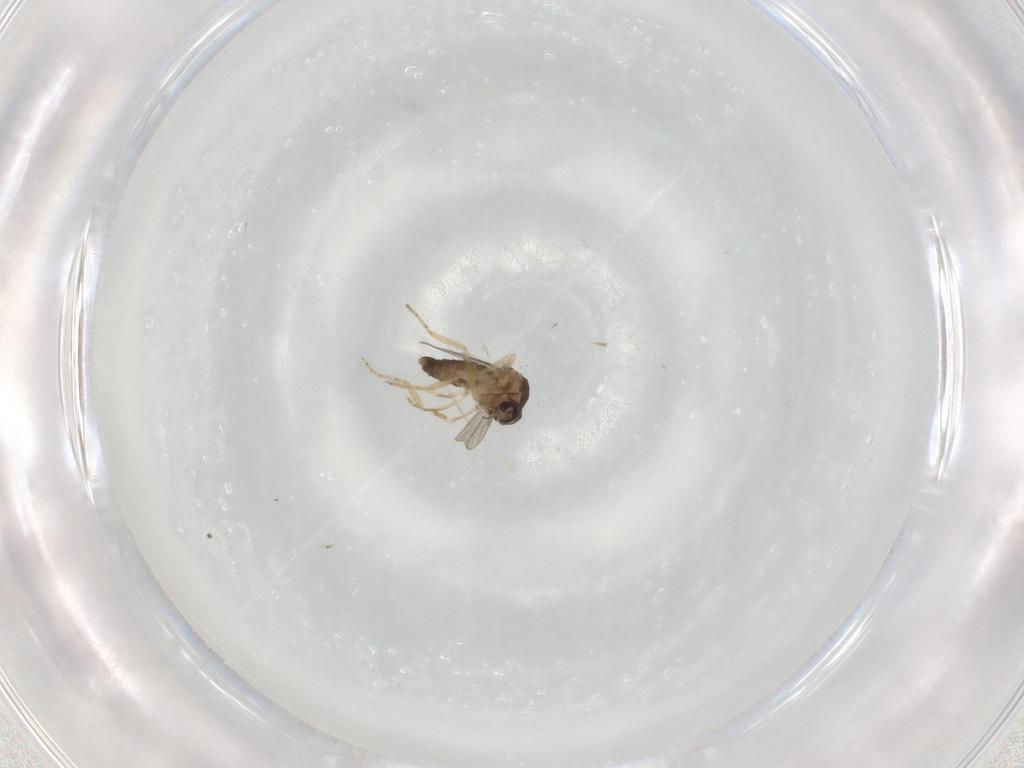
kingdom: Animalia
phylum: Arthropoda
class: Insecta
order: Diptera
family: Ceratopogonidae
